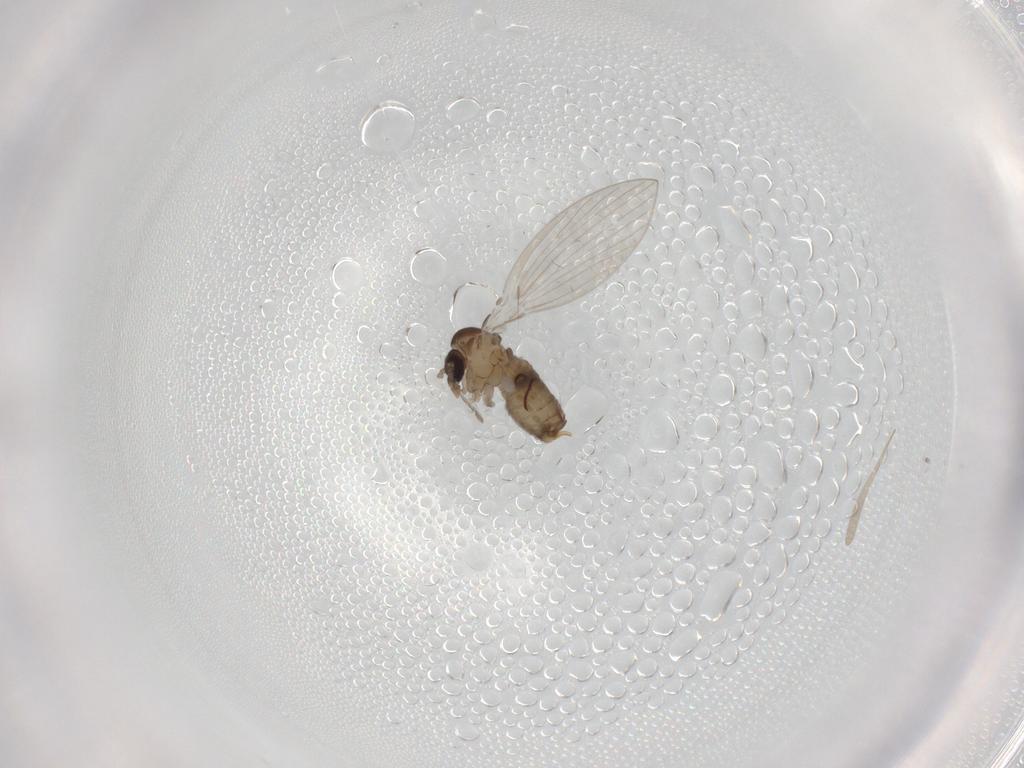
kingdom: Animalia
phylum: Arthropoda
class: Insecta
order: Diptera
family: Psychodidae
